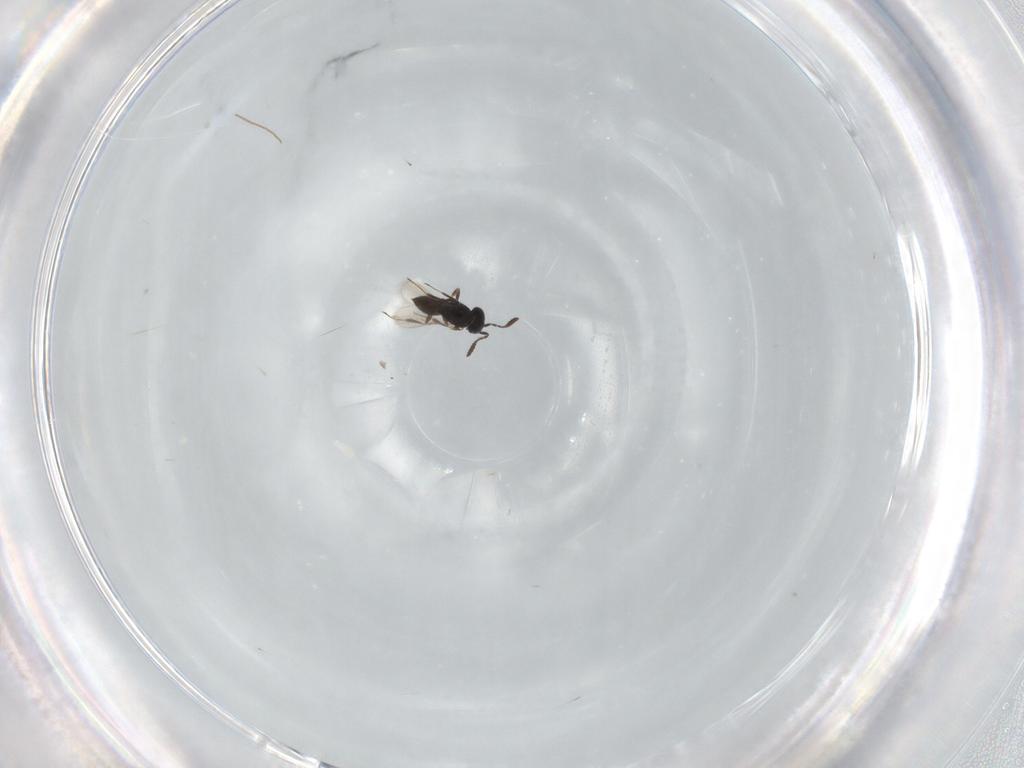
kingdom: Animalia
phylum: Arthropoda
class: Insecta
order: Hymenoptera
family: Scelionidae
